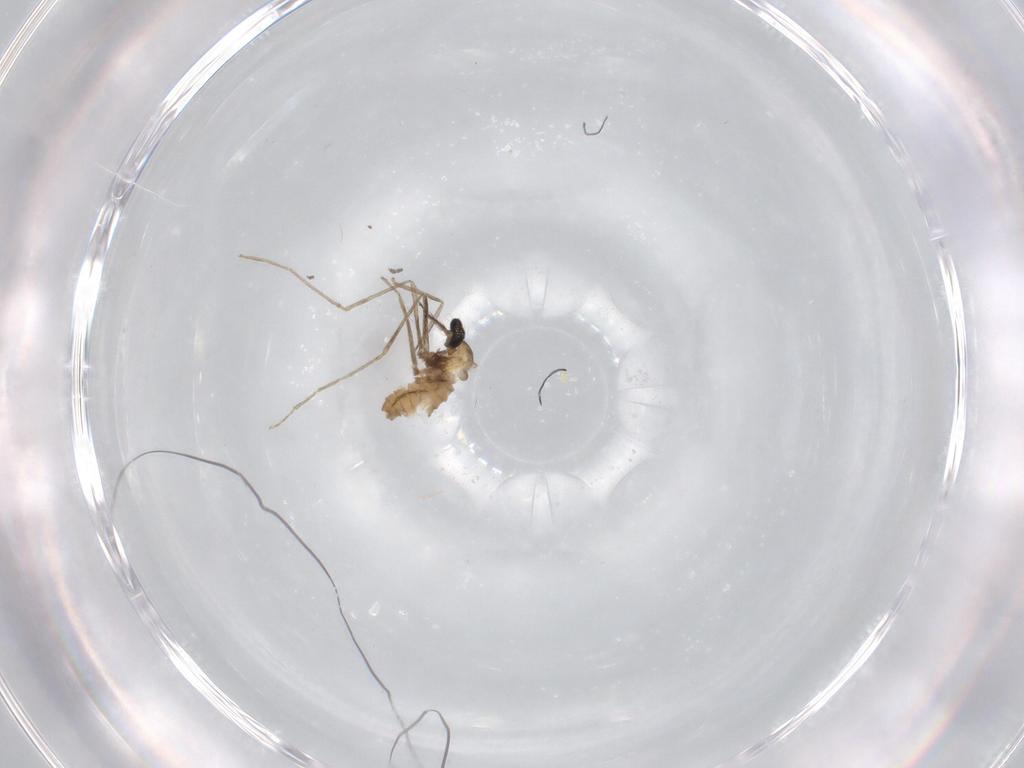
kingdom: Animalia
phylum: Arthropoda
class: Insecta
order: Diptera
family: Cecidomyiidae
